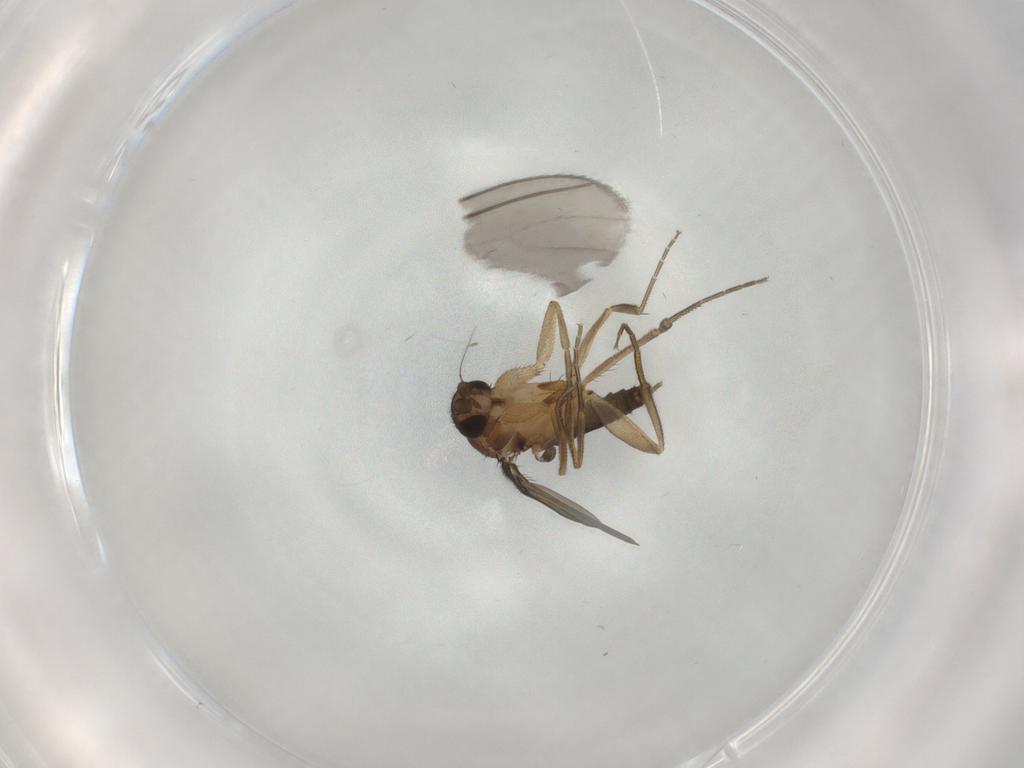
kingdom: Animalia
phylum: Arthropoda
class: Insecta
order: Diptera
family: Phoridae
